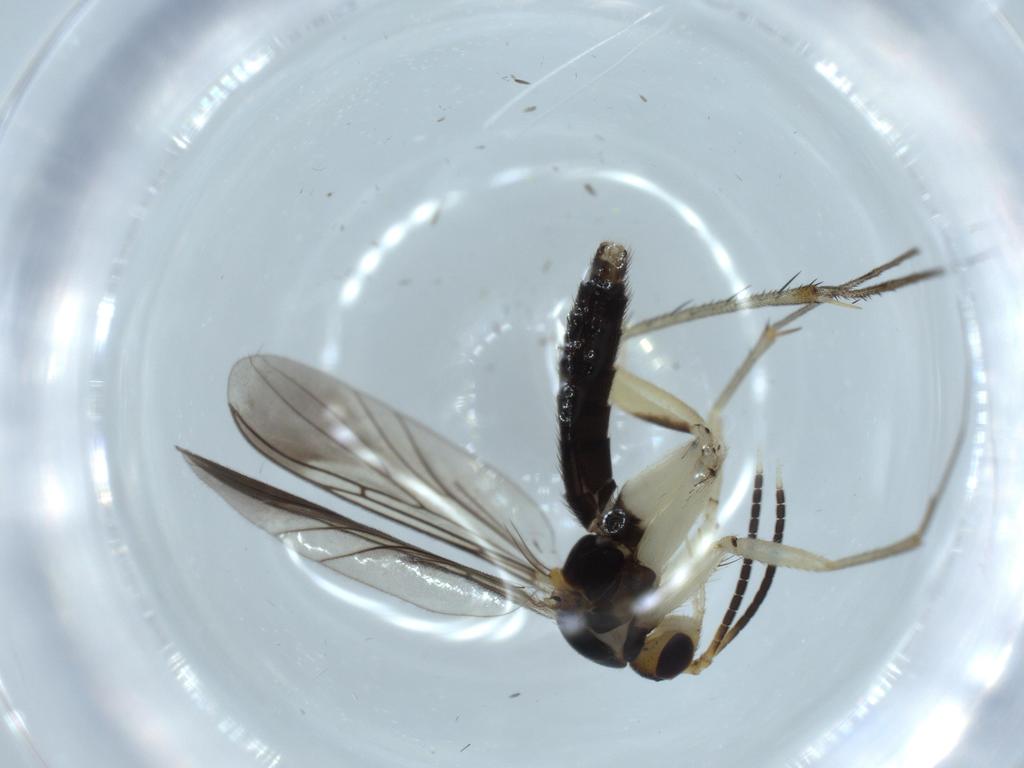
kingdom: Animalia
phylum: Arthropoda
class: Insecta
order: Diptera
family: Mycetophilidae
